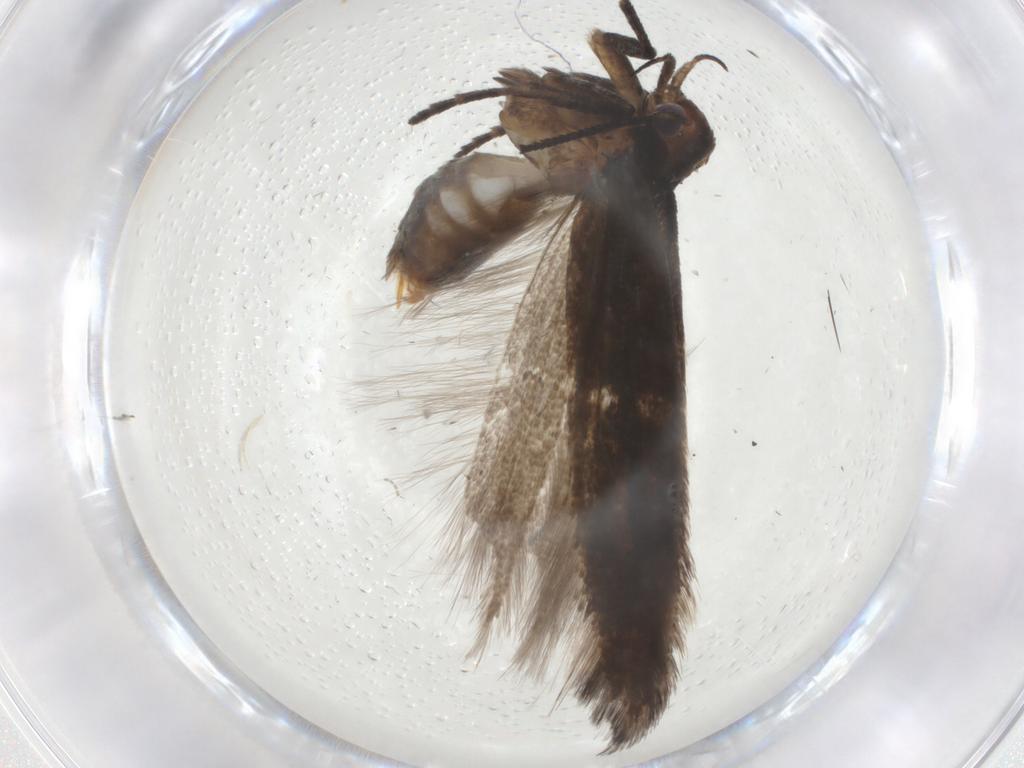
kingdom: Animalia
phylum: Arthropoda
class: Insecta
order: Lepidoptera
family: Gelechiidae
